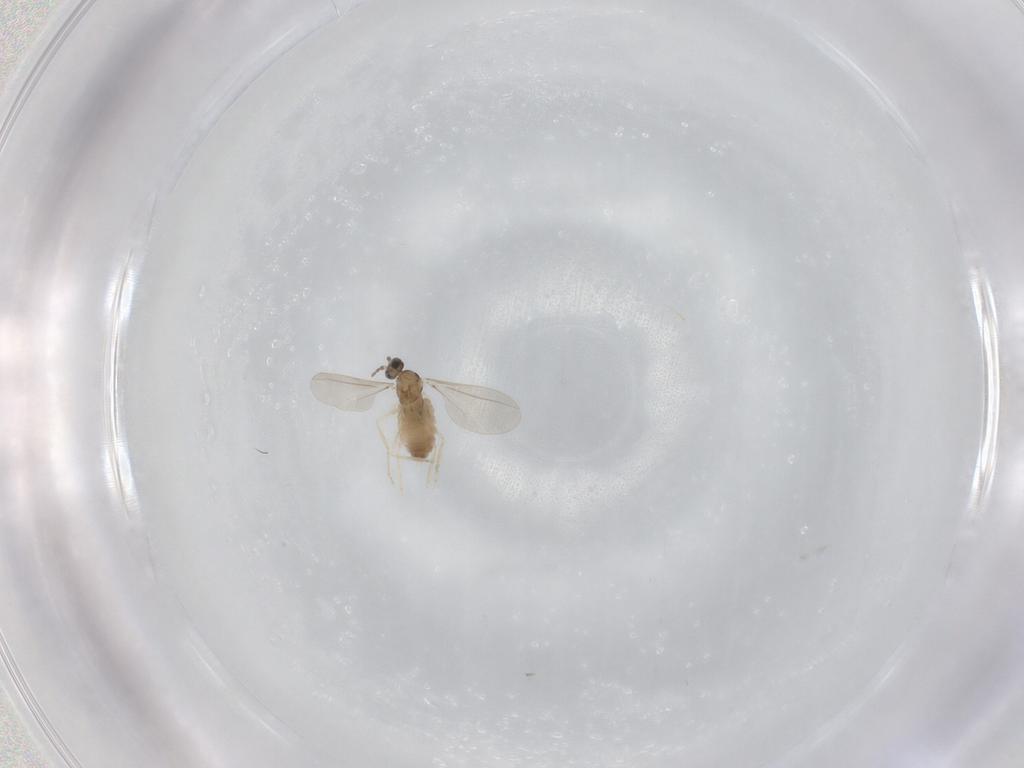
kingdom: Animalia
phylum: Arthropoda
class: Insecta
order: Diptera
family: Cecidomyiidae
